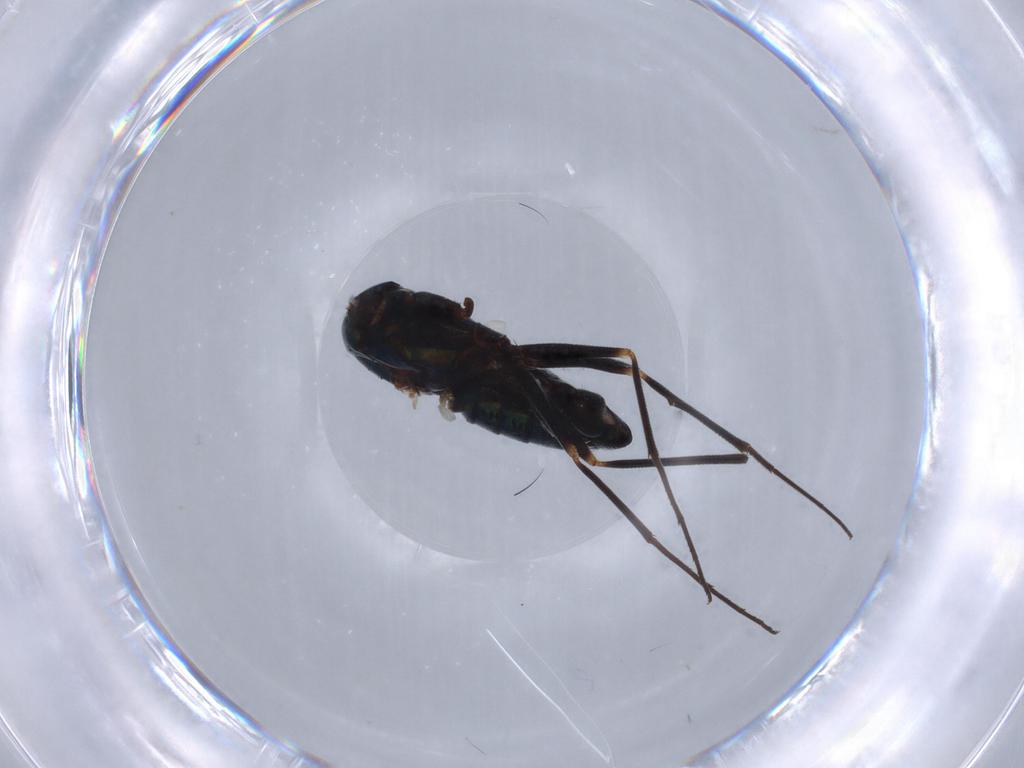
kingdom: Animalia
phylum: Arthropoda
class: Insecta
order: Diptera
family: Dolichopodidae
